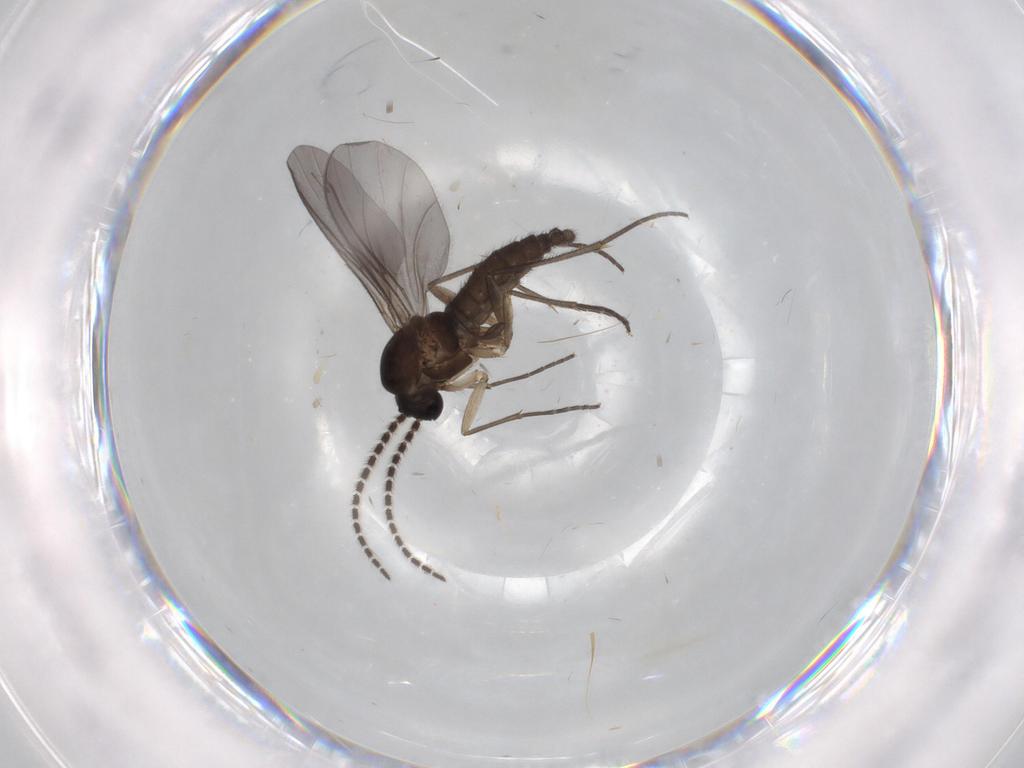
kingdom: Animalia
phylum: Arthropoda
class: Insecta
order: Diptera
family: Sciaridae
